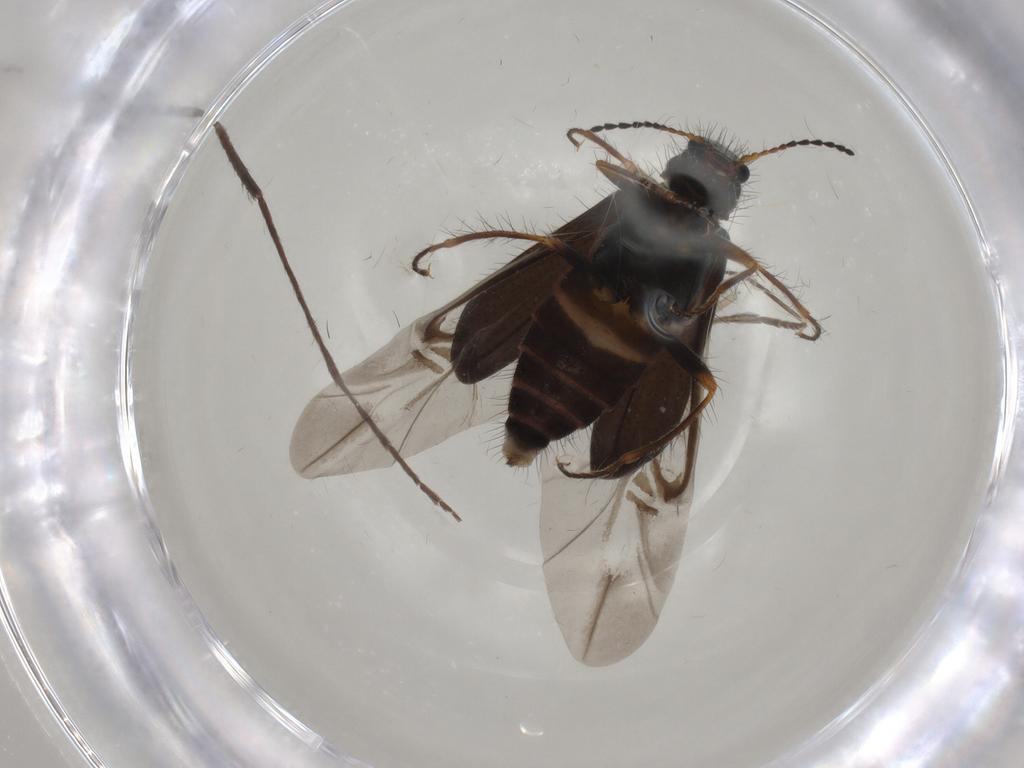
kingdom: Animalia
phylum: Arthropoda
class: Insecta
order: Coleoptera
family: Melyridae
